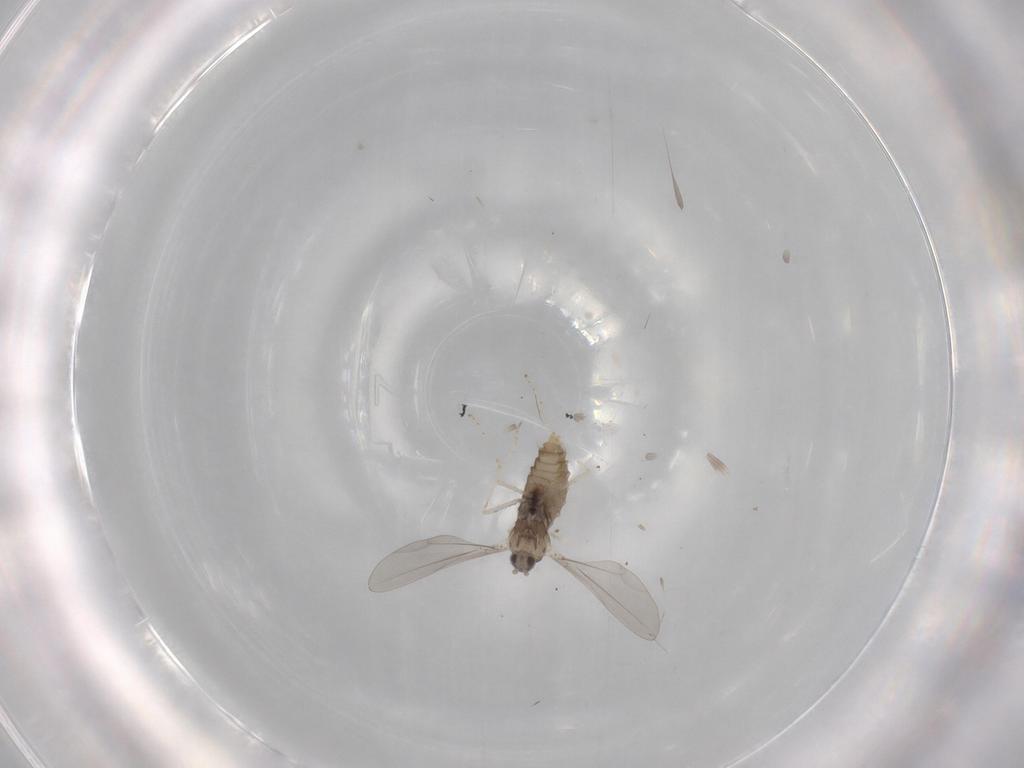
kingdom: Animalia
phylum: Arthropoda
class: Insecta
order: Diptera
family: Cecidomyiidae
